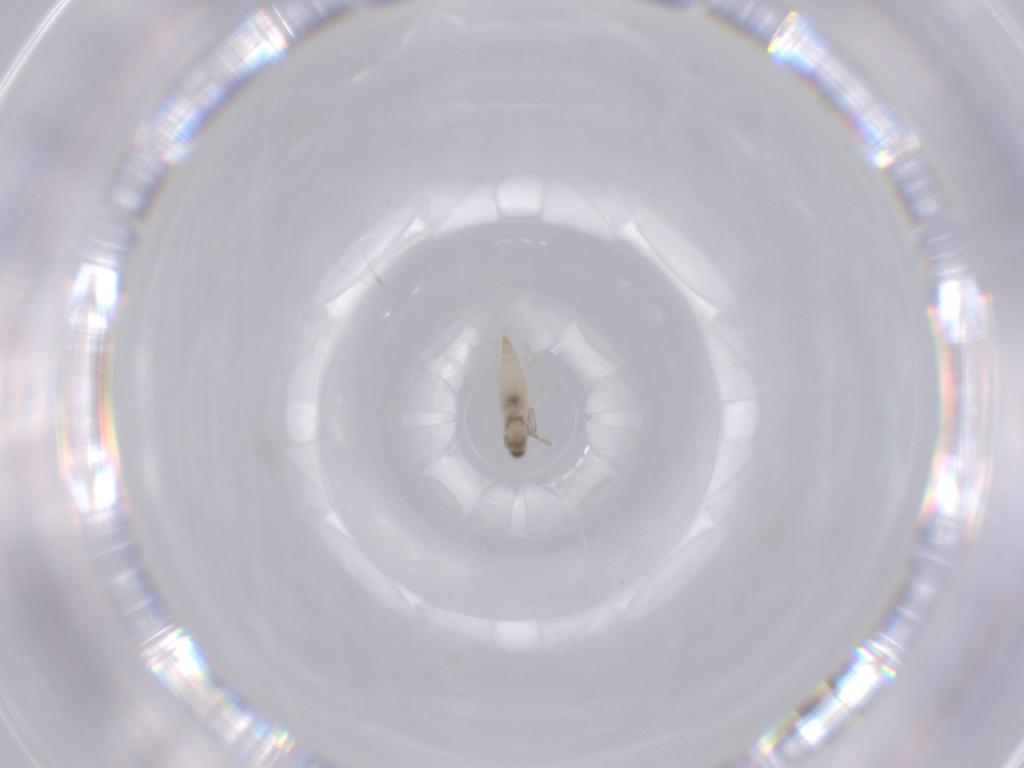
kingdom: Animalia
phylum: Arthropoda
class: Insecta
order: Diptera
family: Cecidomyiidae
